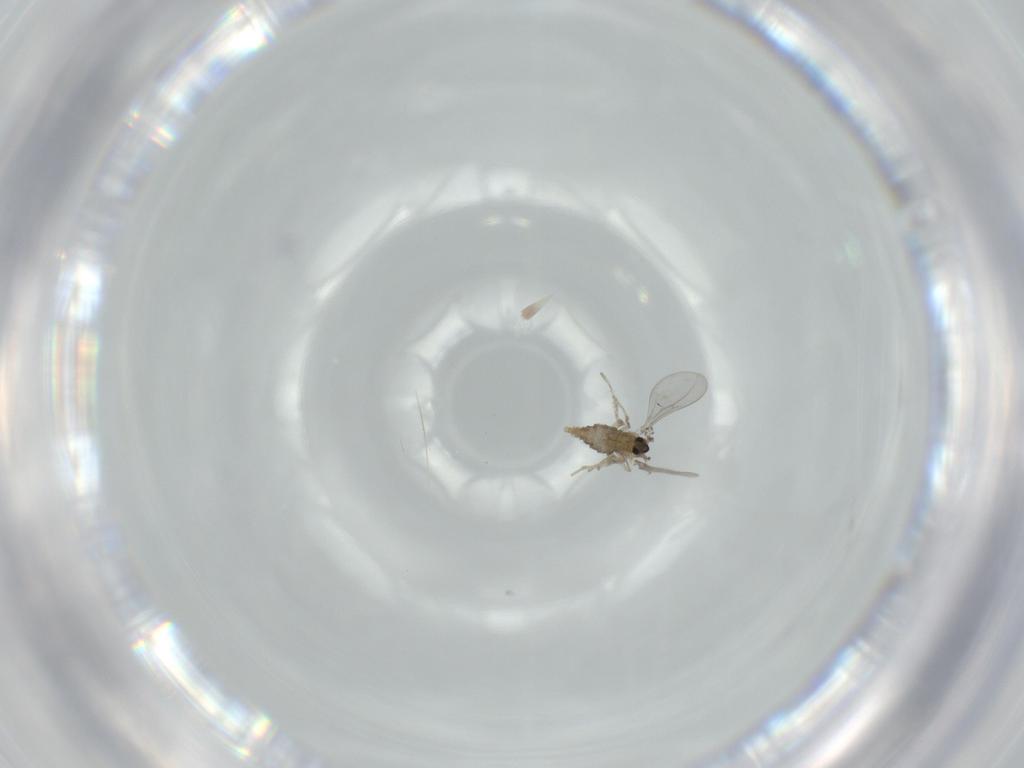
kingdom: Animalia
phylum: Arthropoda
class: Insecta
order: Diptera
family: Cecidomyiidae
